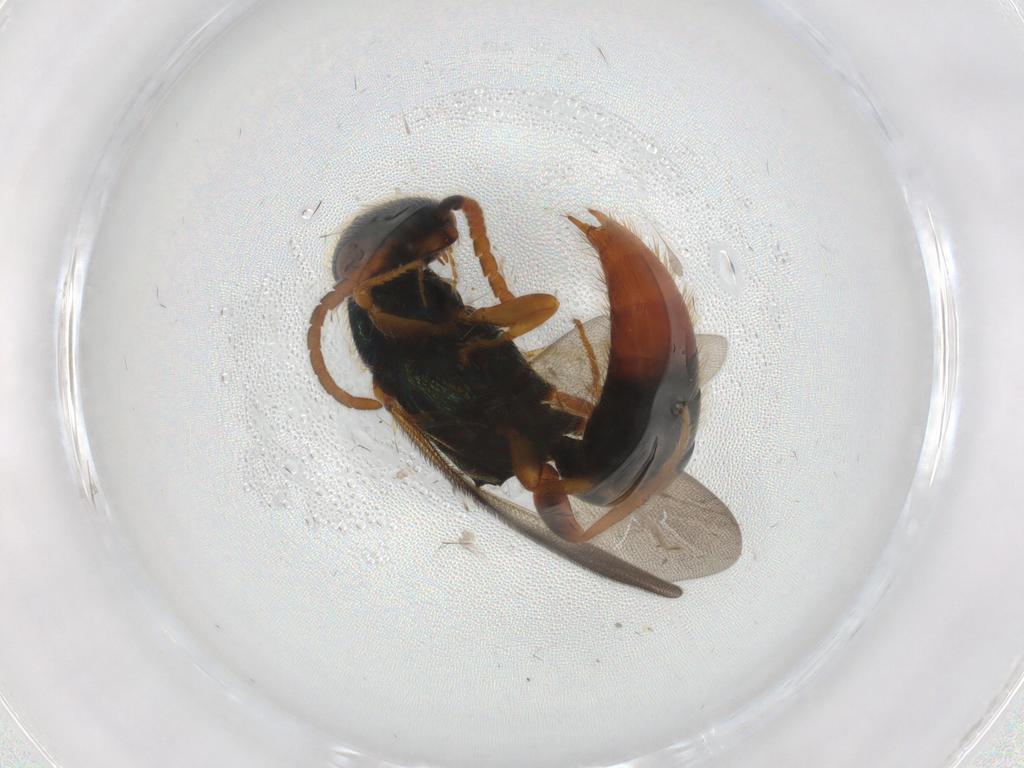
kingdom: Animalia
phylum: Arthropoda
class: Insecta
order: Hymenoptera
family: Bethylidae
